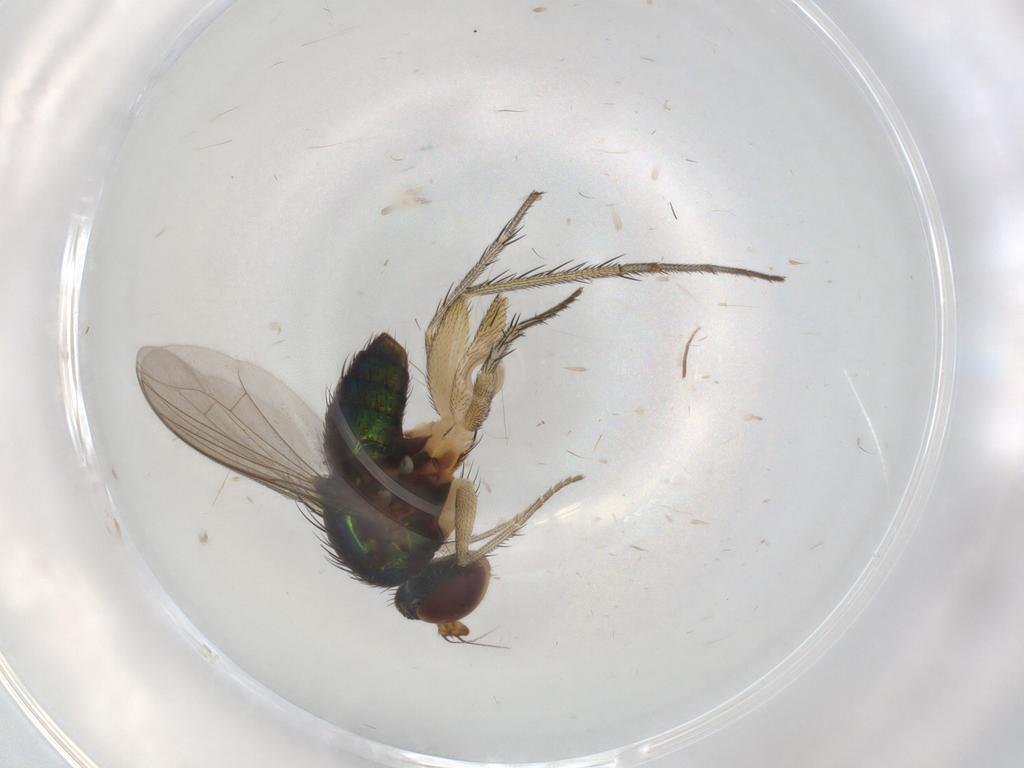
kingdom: Animalia
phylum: Arthropoda
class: Insecta
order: Diptera
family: Dolichopodidae
